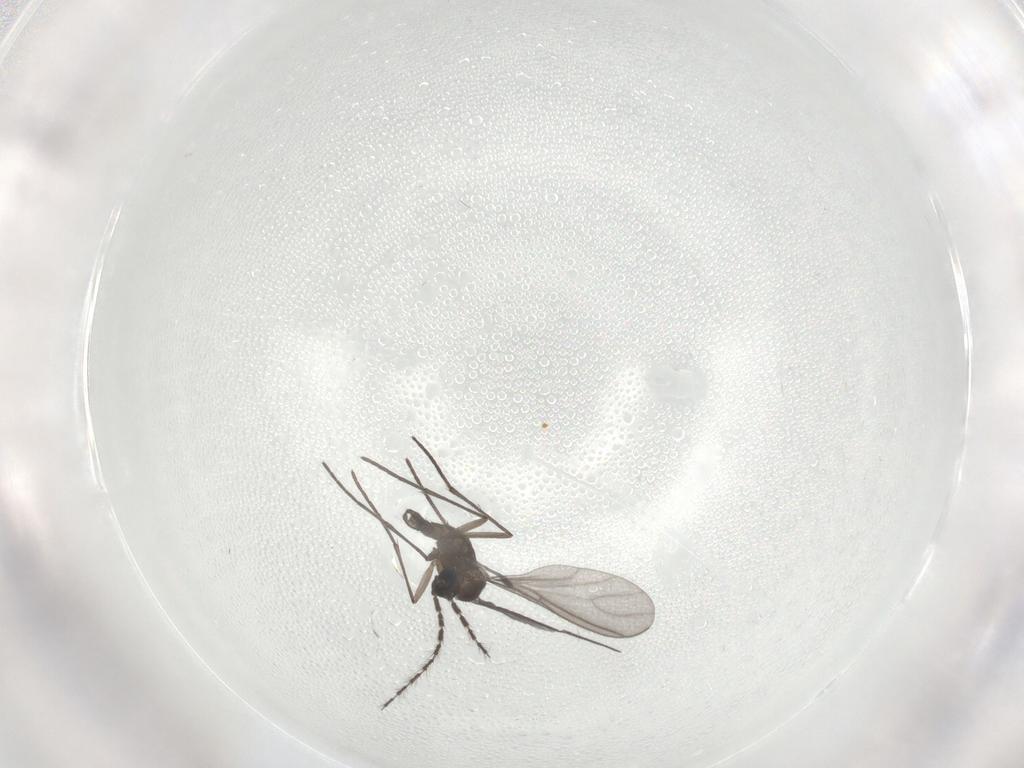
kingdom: Animalia
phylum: Arthropoda
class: Insecta
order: Diptera
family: Sciaridae
